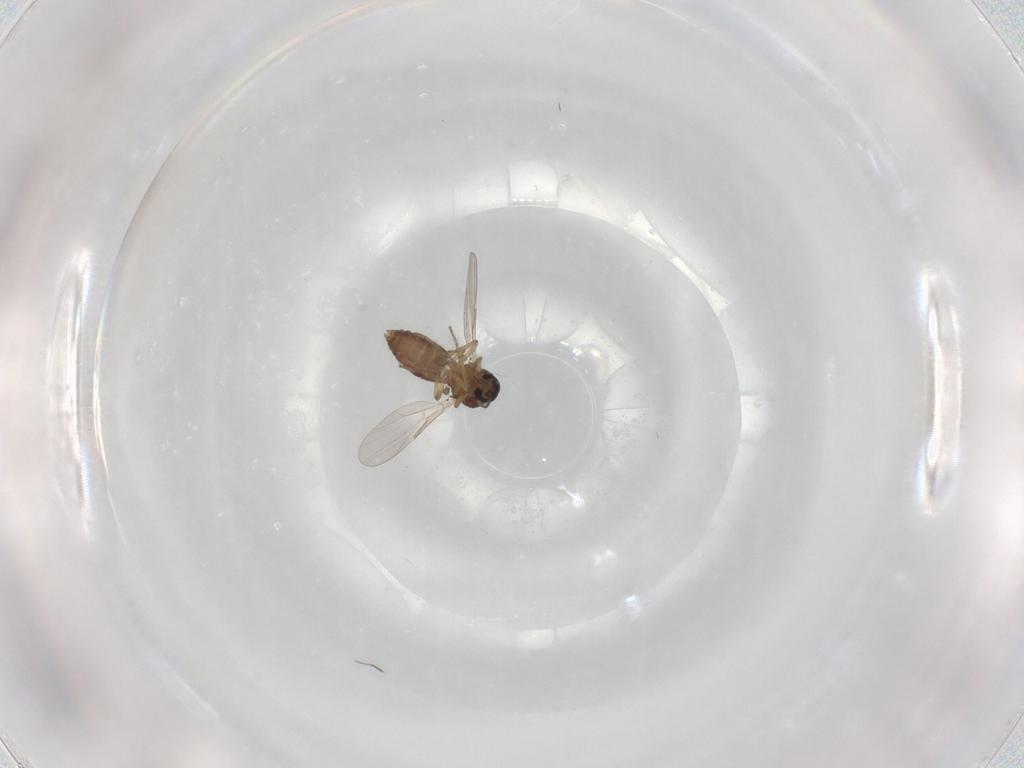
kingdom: Animalia
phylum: Arthropoda
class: Insecta
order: Diptera
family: Ceratopogonidae
